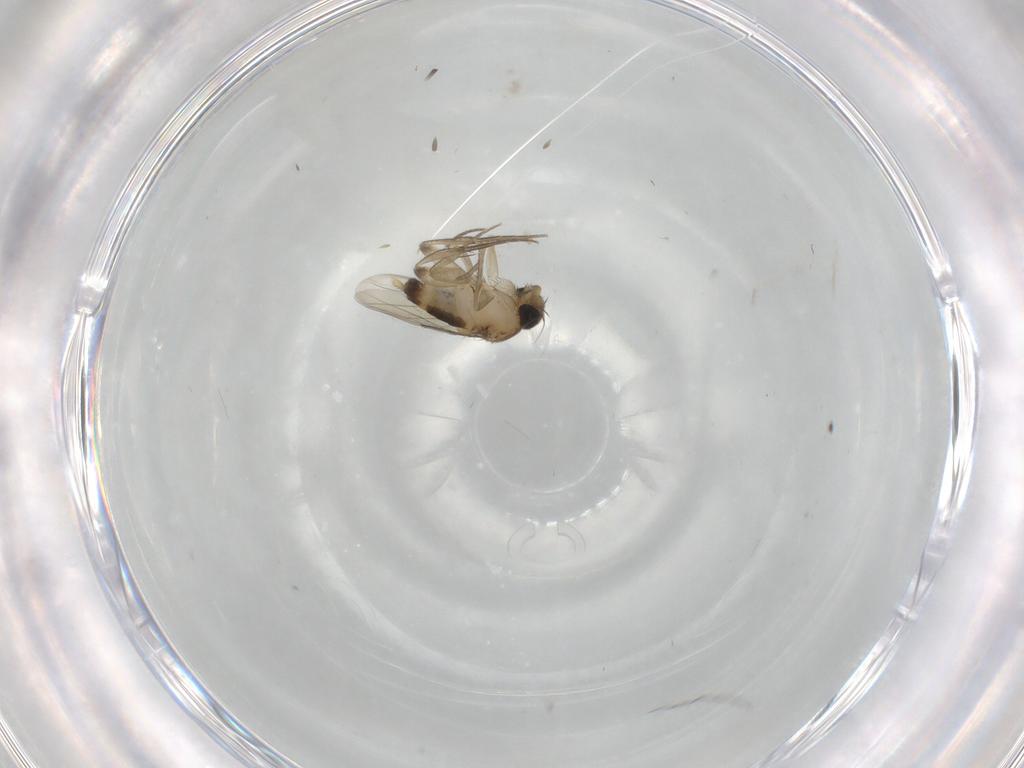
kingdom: Animalia
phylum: Arthropoda
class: Insecta
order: Diptera
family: Cecidomyiidae
